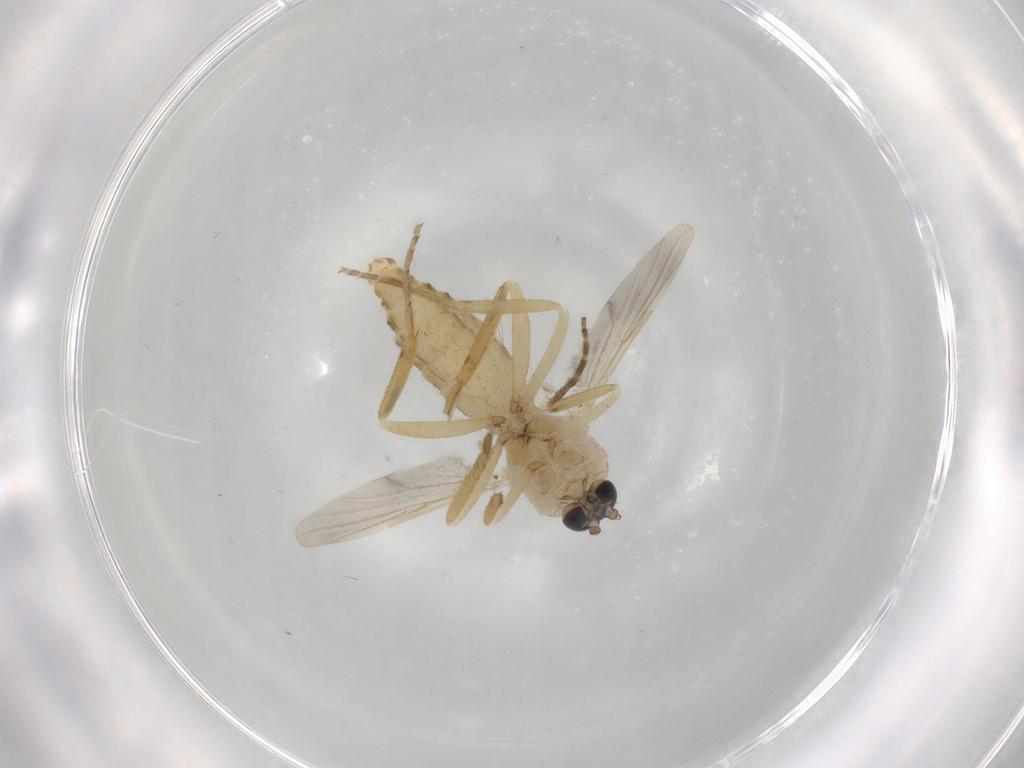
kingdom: Animalia
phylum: Arthropoda
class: Insecta
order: Diptera
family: Ceratopogonidae
